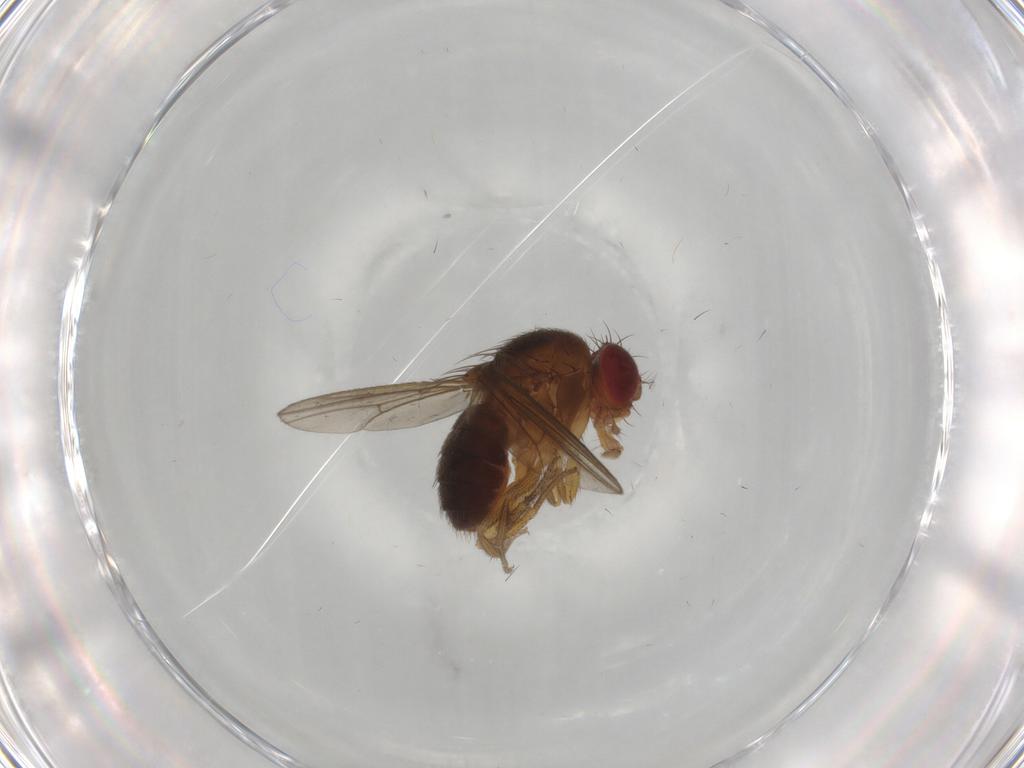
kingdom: Animalia
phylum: Arthropoda
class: Insecta
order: Diptera
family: Drosophilidae
